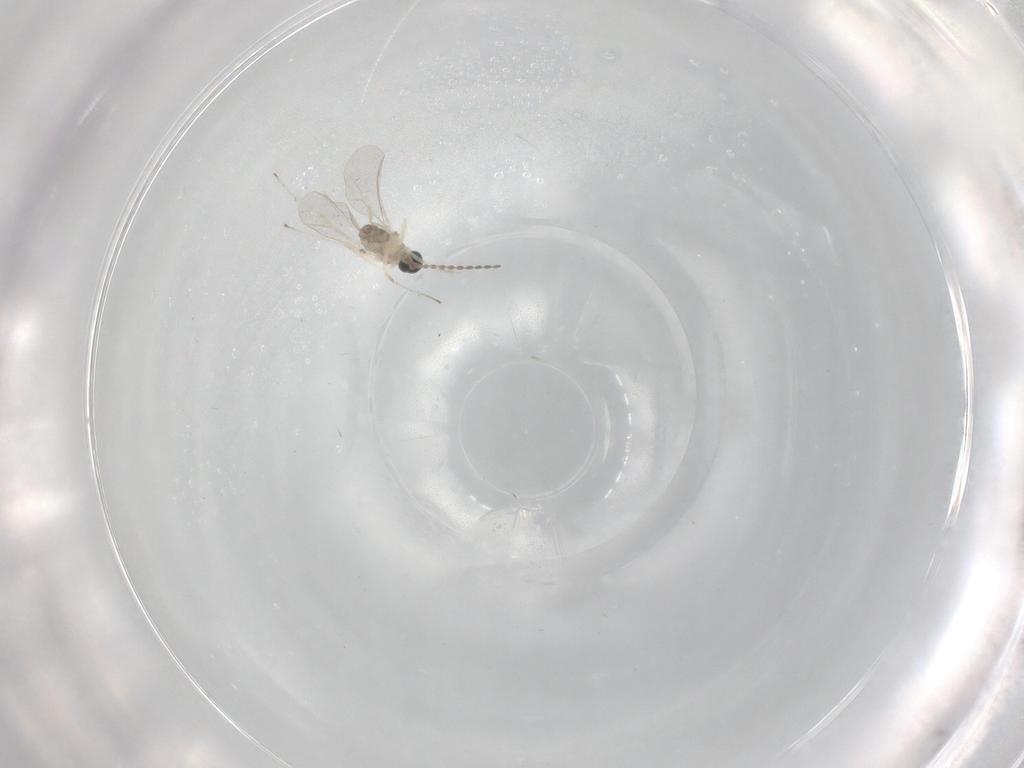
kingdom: Animalia
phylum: Arthropoda
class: Insecta
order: Diptera
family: Cecidomyiidae
